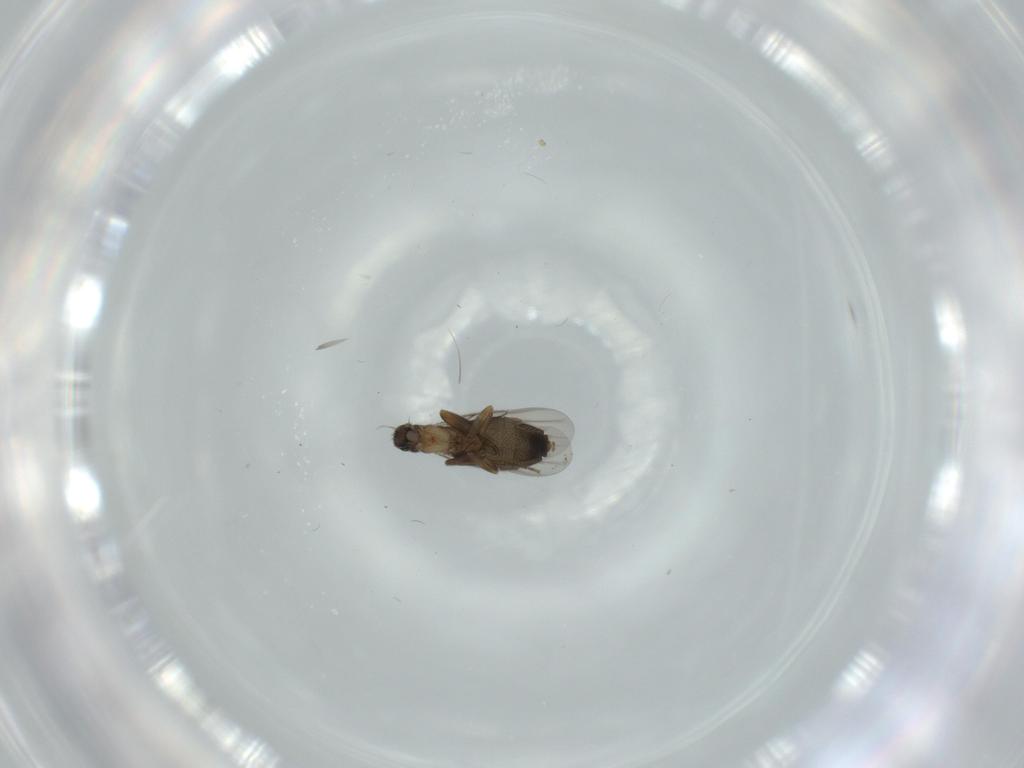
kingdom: Animalia
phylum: Arthropoda
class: Insecta
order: Diptera
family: Phoridae
